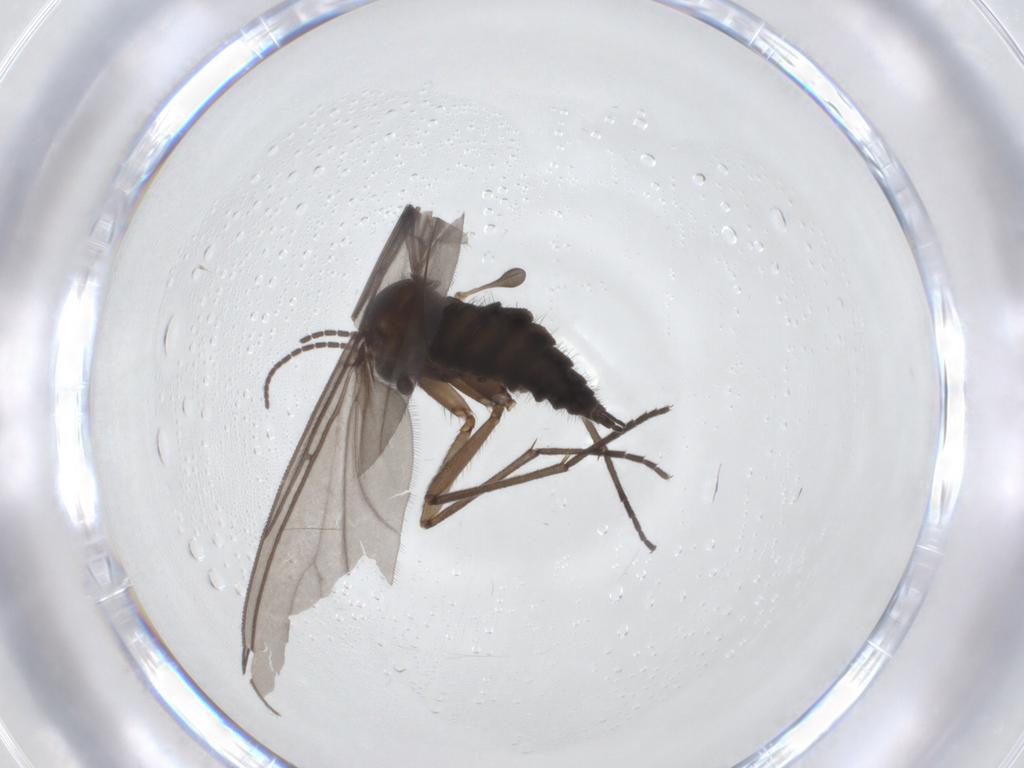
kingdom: Animalia
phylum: Arthropoda
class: Insecta
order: Diptera
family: Sciaridae
